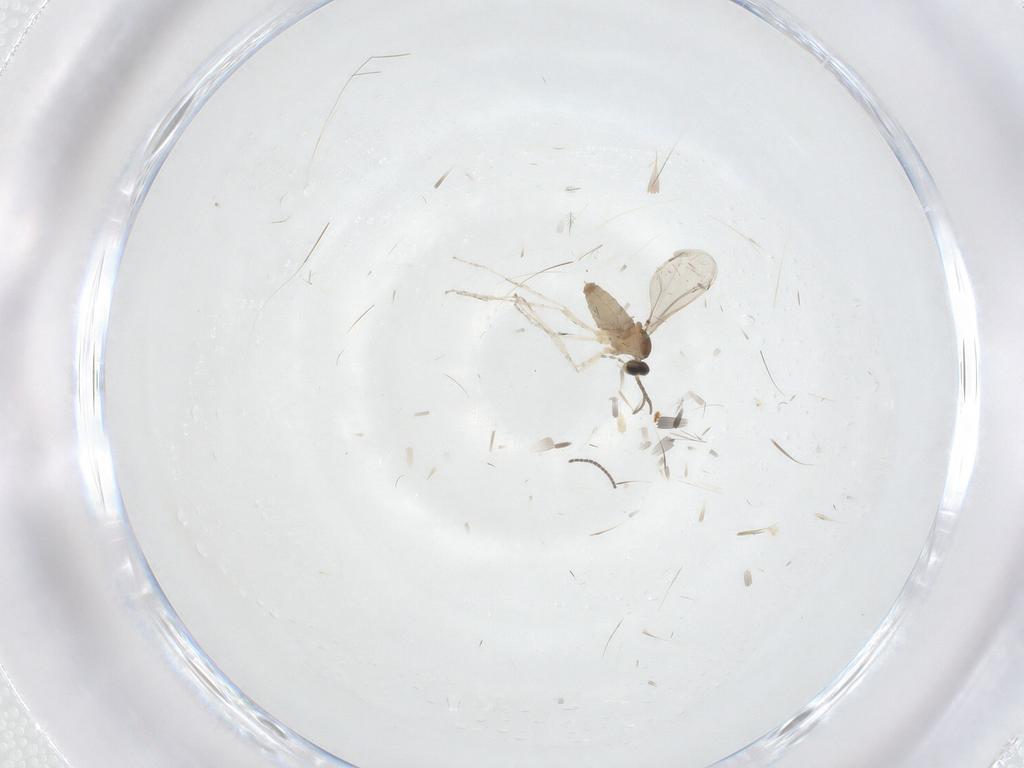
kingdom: Animalia
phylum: Arthropoda
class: Insecta
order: Diptera
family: Cecidomyiidae
